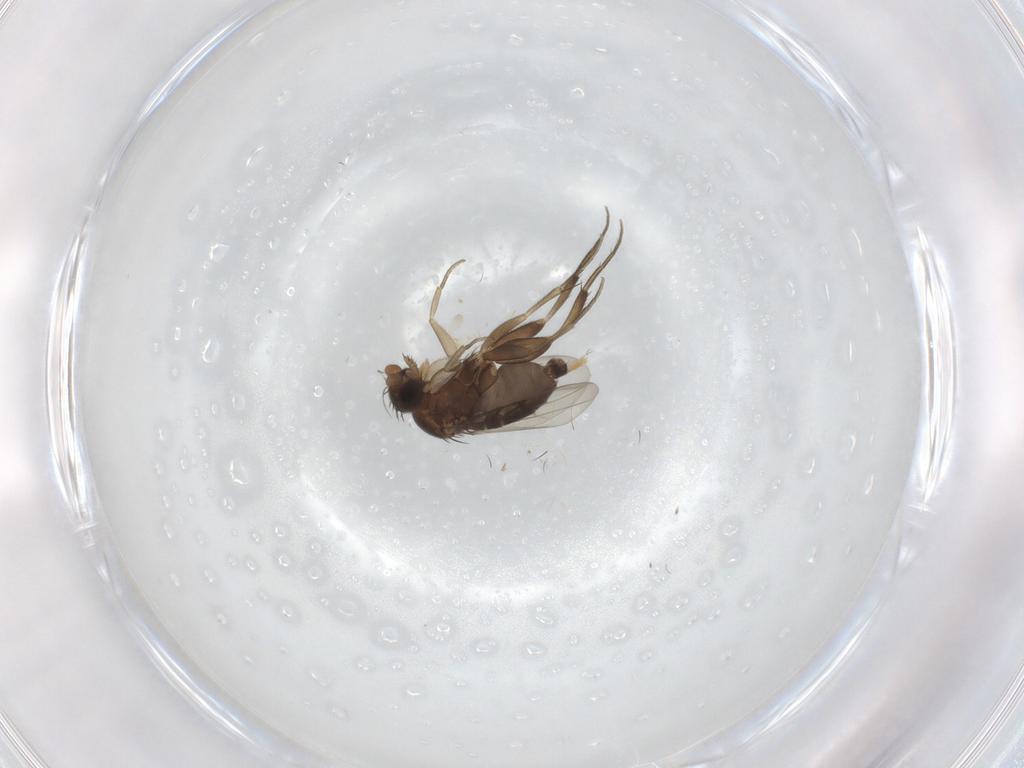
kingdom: Animalia
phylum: Arthropoda
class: Insecta
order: Diptera
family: Phoridae
